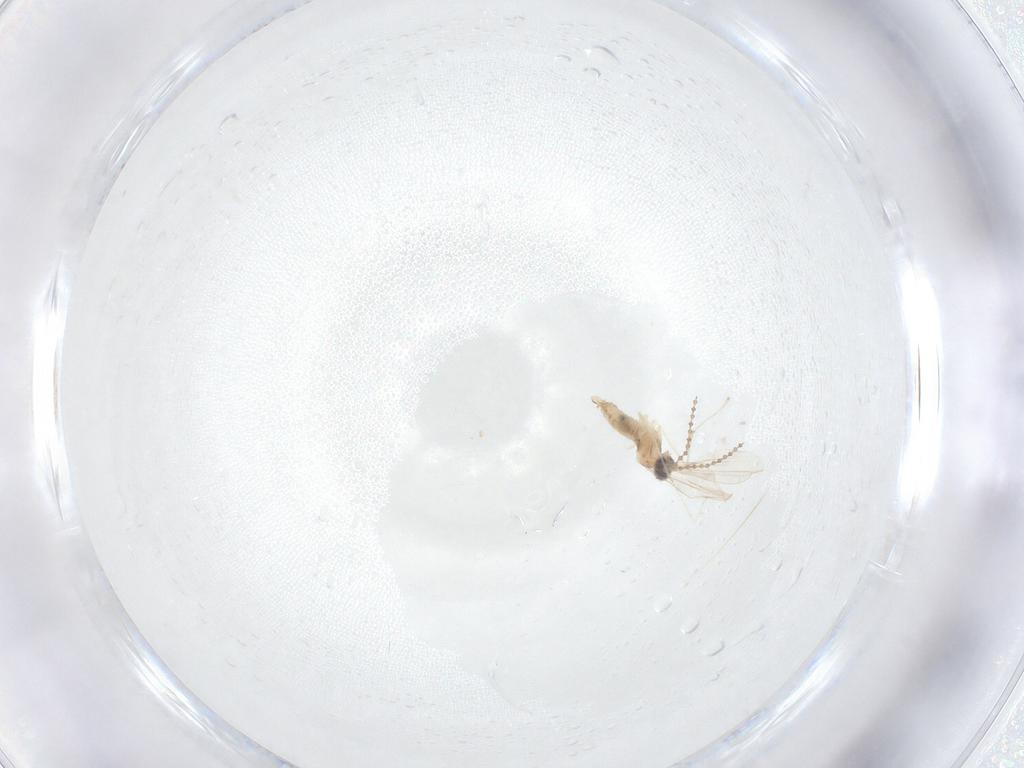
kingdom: Animalia
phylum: Arthropoda
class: Insecta
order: Diptera
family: Cecidomyiidae
